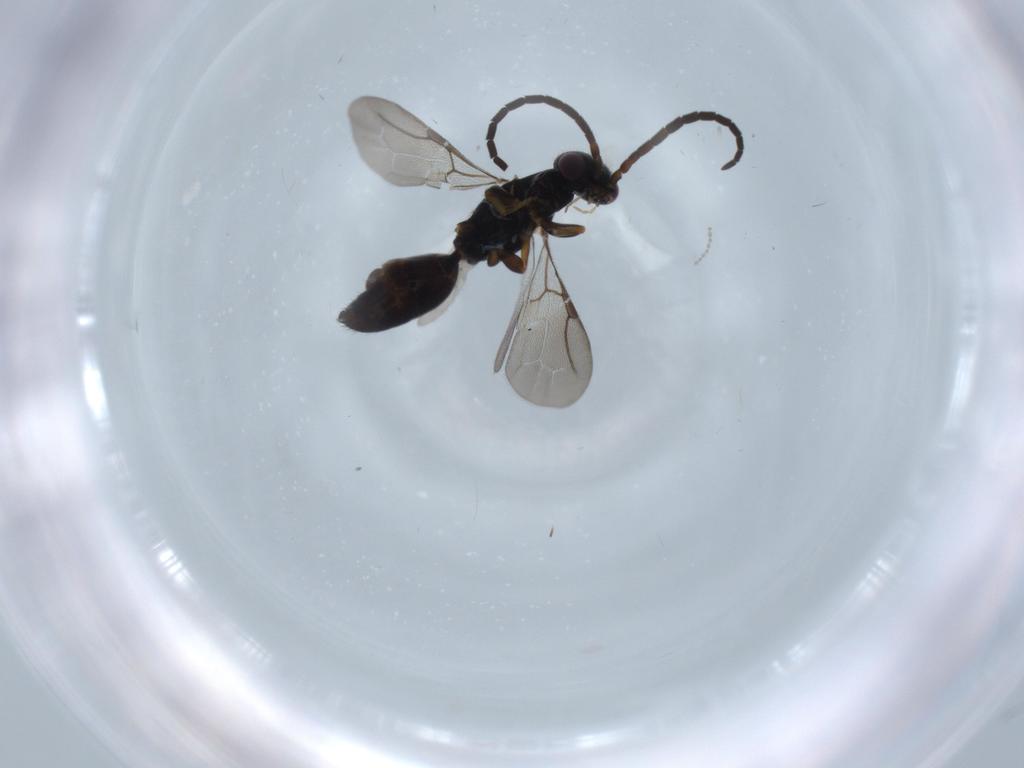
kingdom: Animalia
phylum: Arthropoda
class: Insecta
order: Hymenoptera
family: Bethylidae
